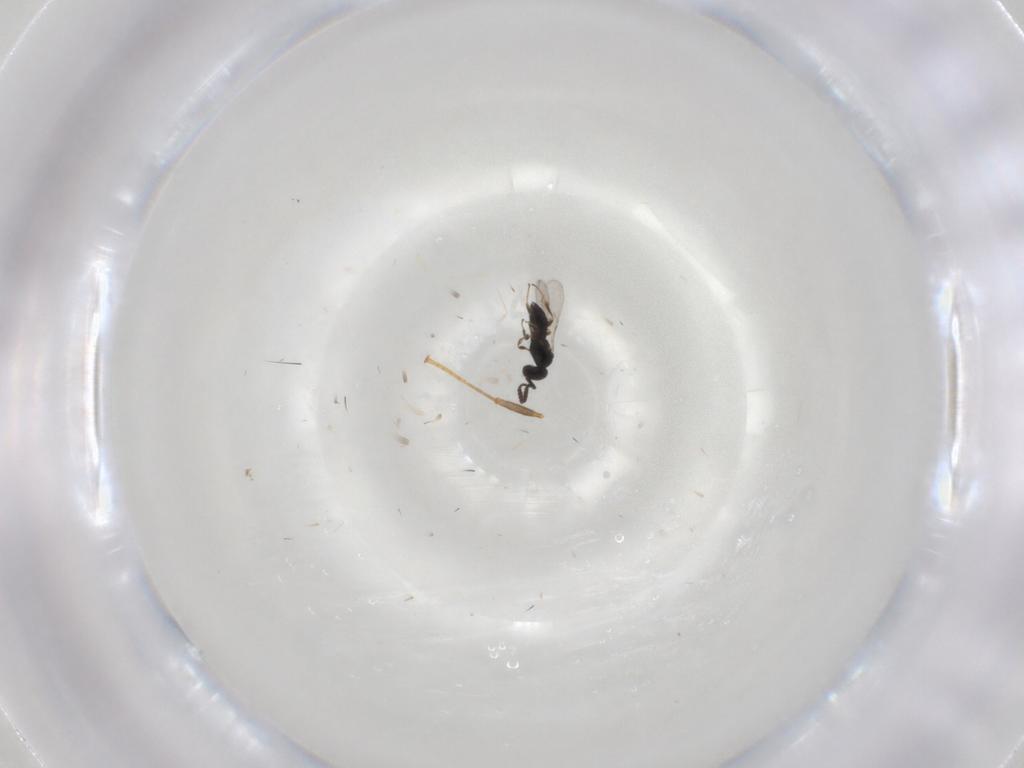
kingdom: Animalia
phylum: Arthropoda
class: Insecta
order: Hymenoptera
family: Scelionidae
